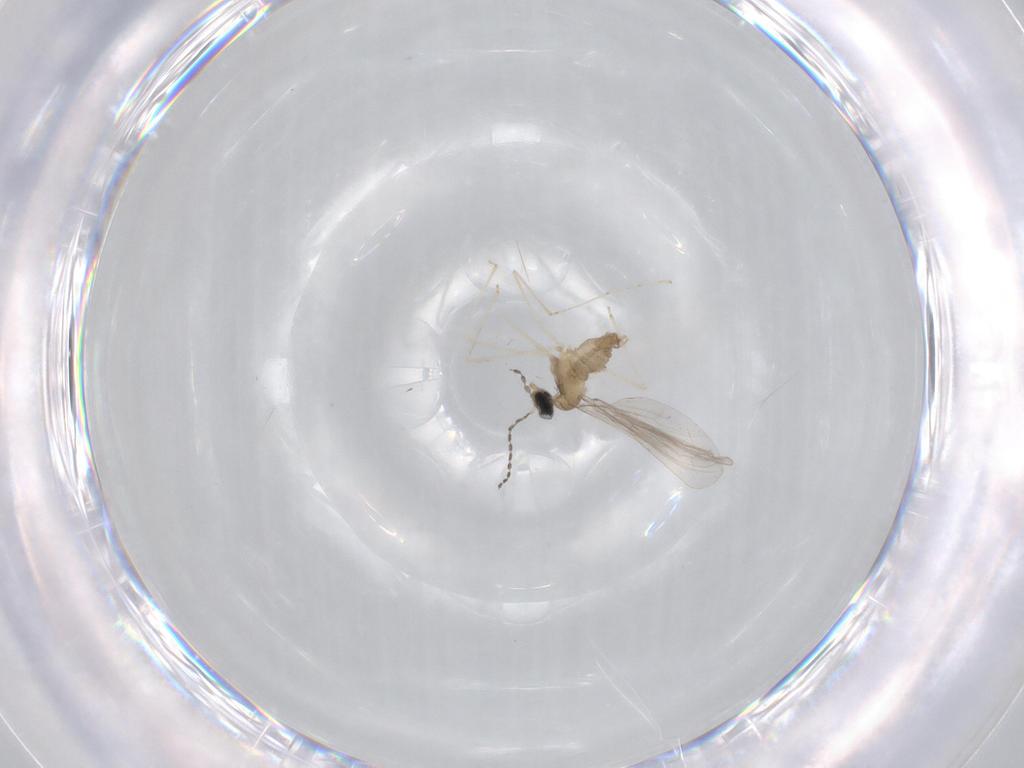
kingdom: Animalia
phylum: Arthropoda
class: Insecta
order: Diptera
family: Cecidomyiidae
